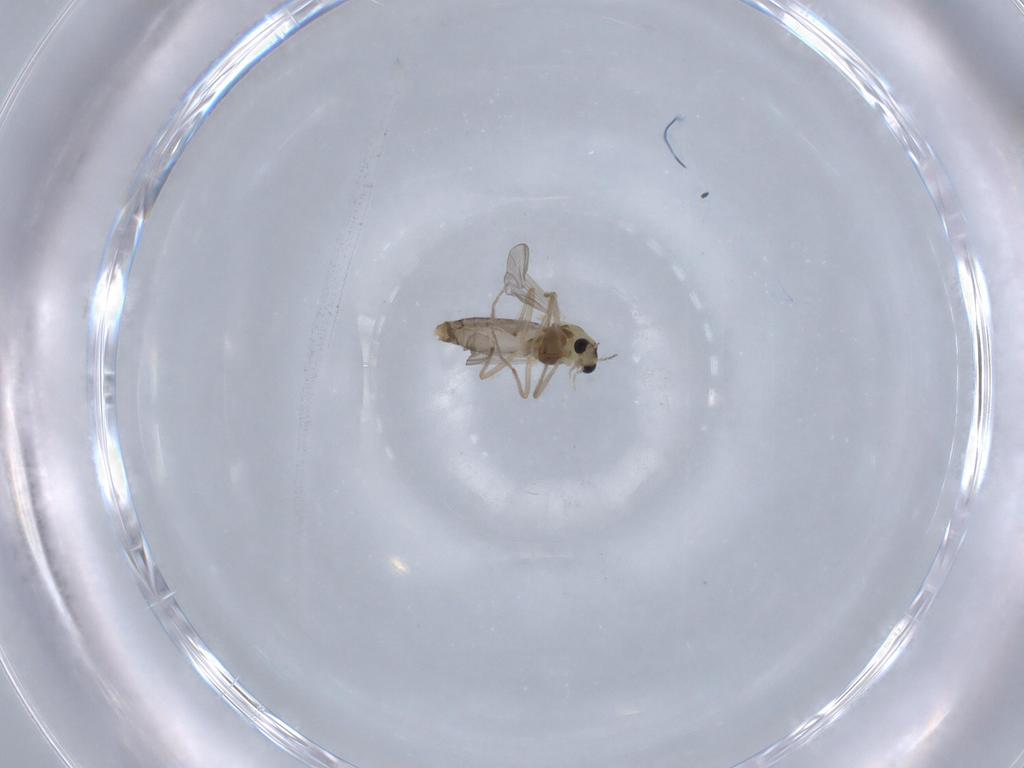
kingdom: Animalia
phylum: Arthropoda
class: Insecta
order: Diptera
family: Chironomidae
